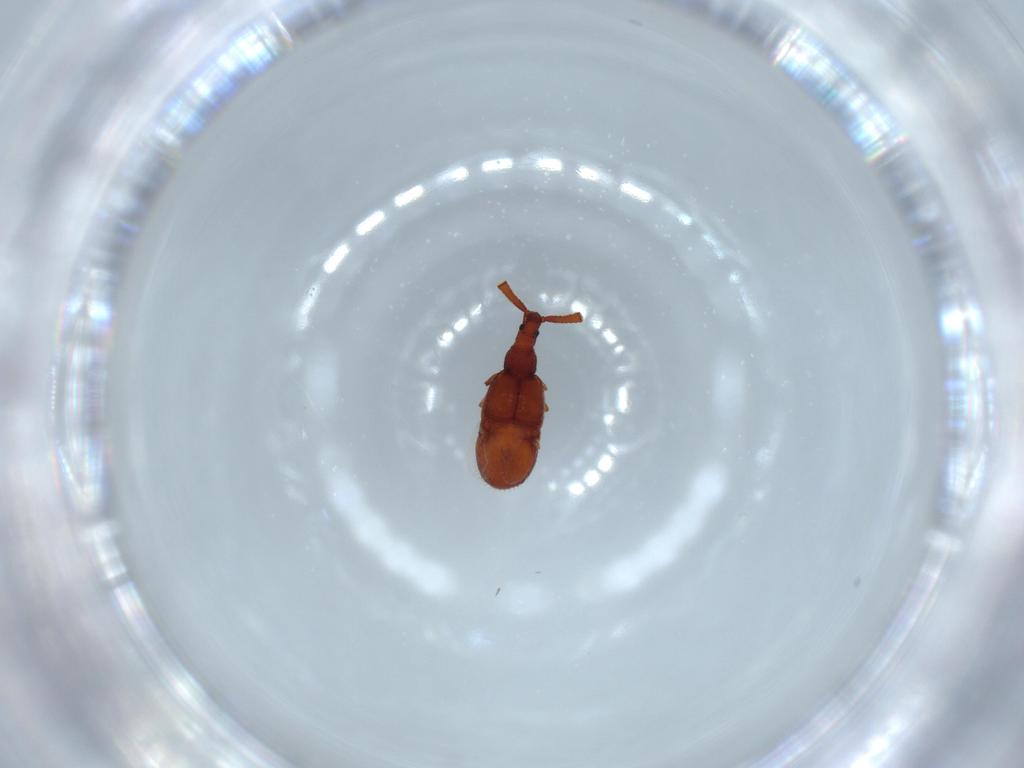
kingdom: Animalia
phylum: Arthropoda
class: Insecta
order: Coleoptera
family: Staphylinidae
